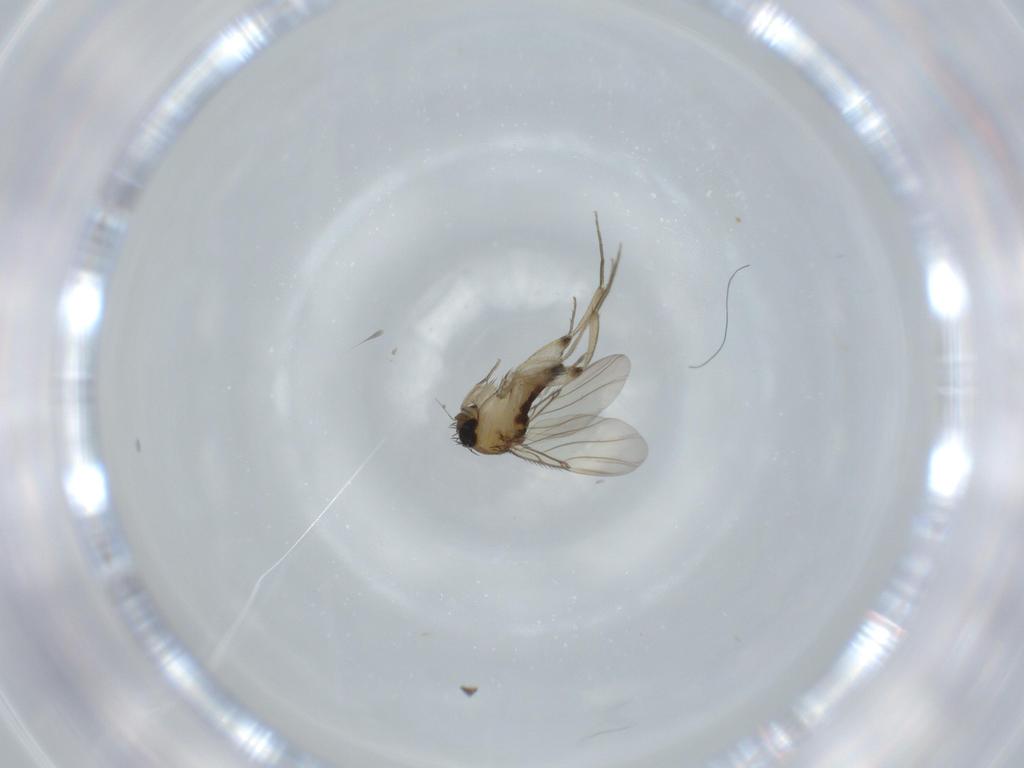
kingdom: Animalia
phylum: Arthropoda
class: Insecta
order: Diptera
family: Phoridae
